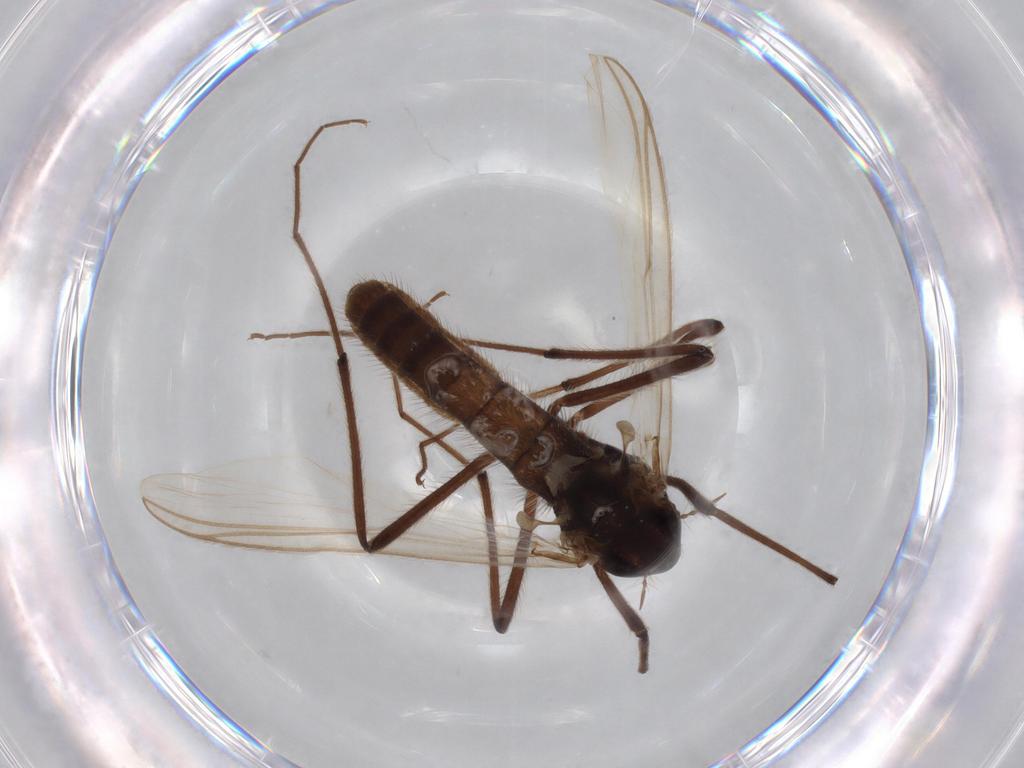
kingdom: Animalia
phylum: Arthropoda
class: Insecta
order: Diptera
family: Chironomidae
